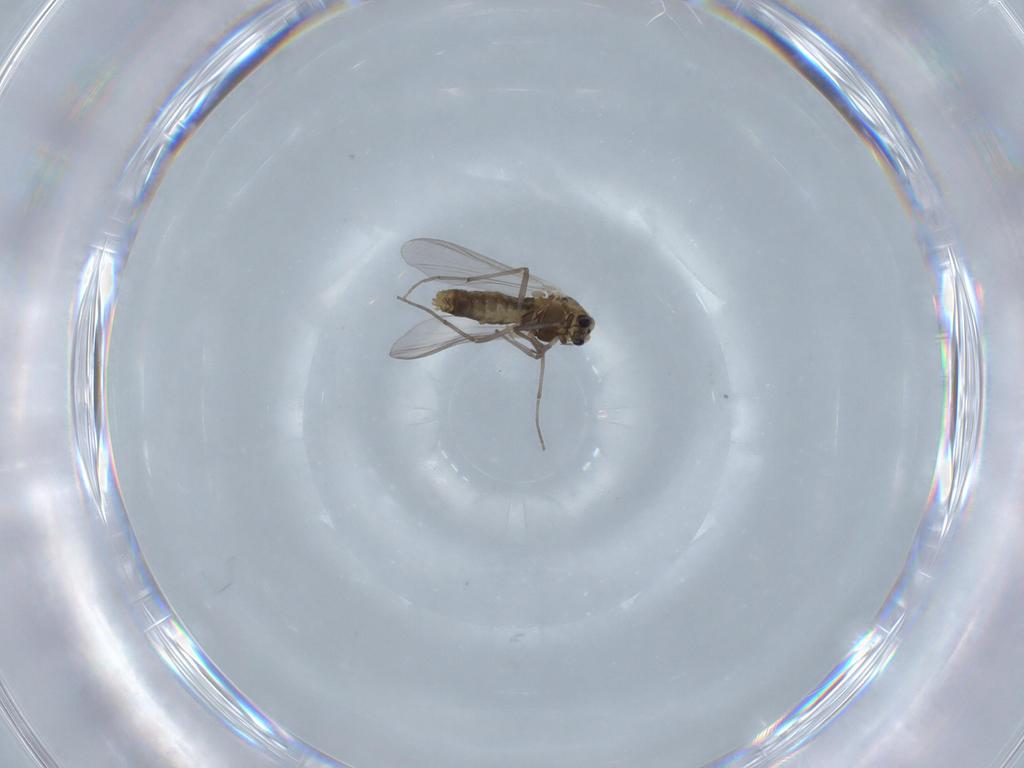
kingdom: Animalia
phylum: Arthropoda
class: Insecta
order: Diptera
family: Chironomidae
